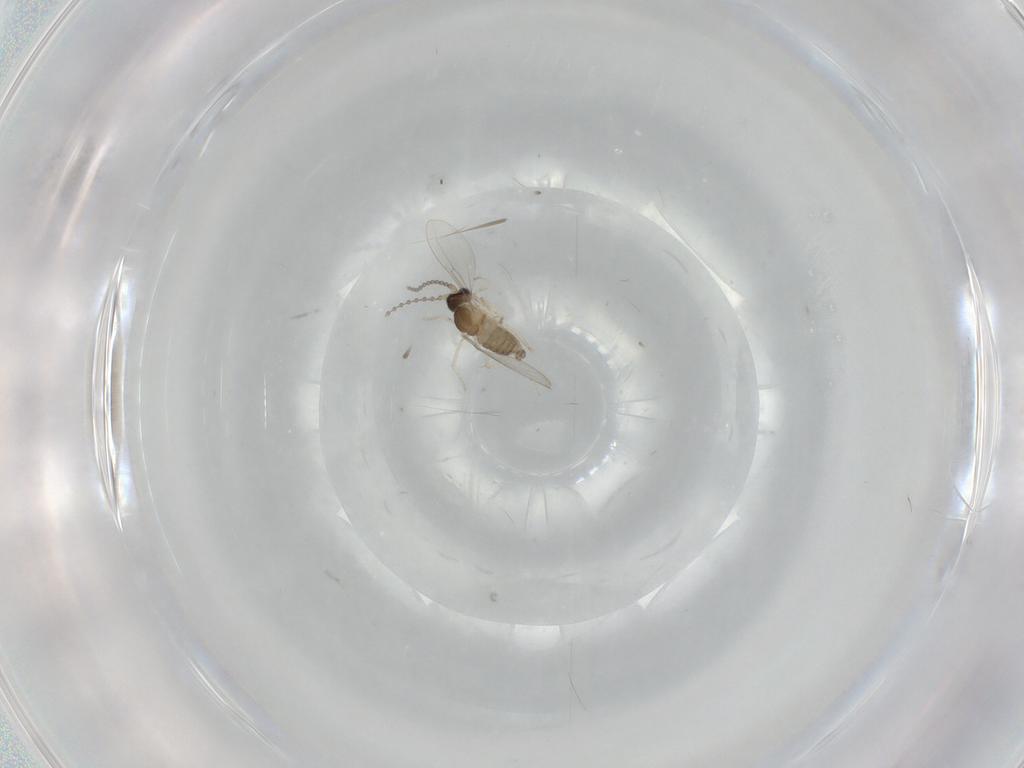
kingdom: Animalia
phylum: Arthropoda
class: Insecta
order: Diptera
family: Cecidomyiidae
